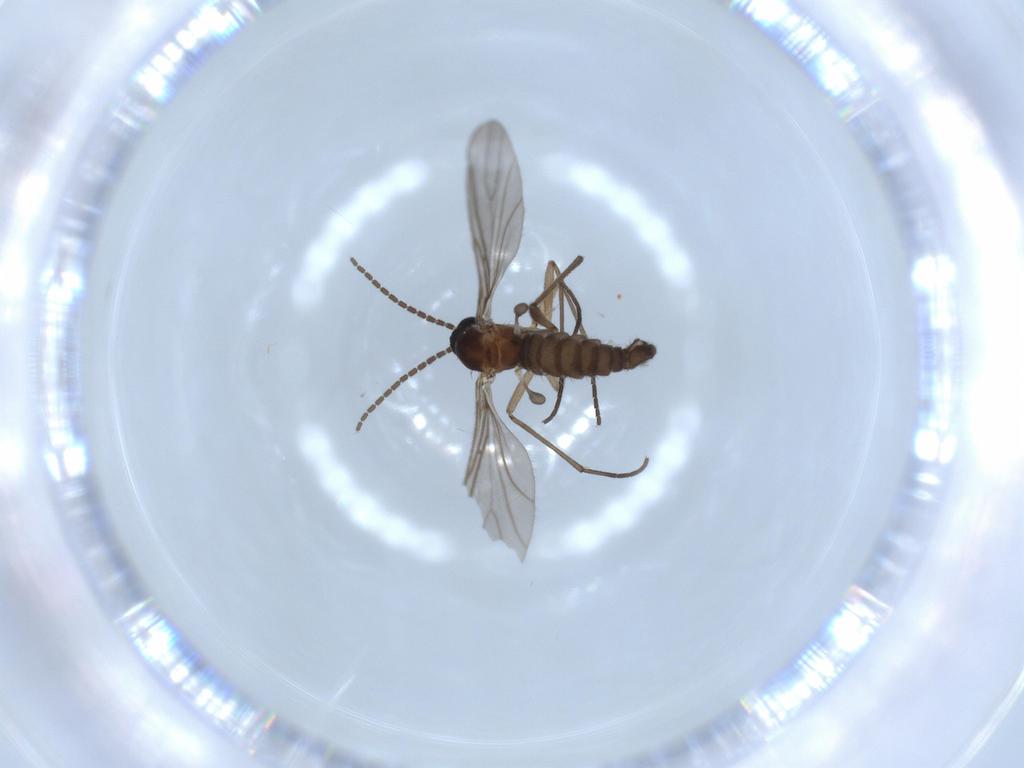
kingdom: Animalia
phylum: Arthropoda
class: Insecta
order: Diptera
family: Sciaridae
